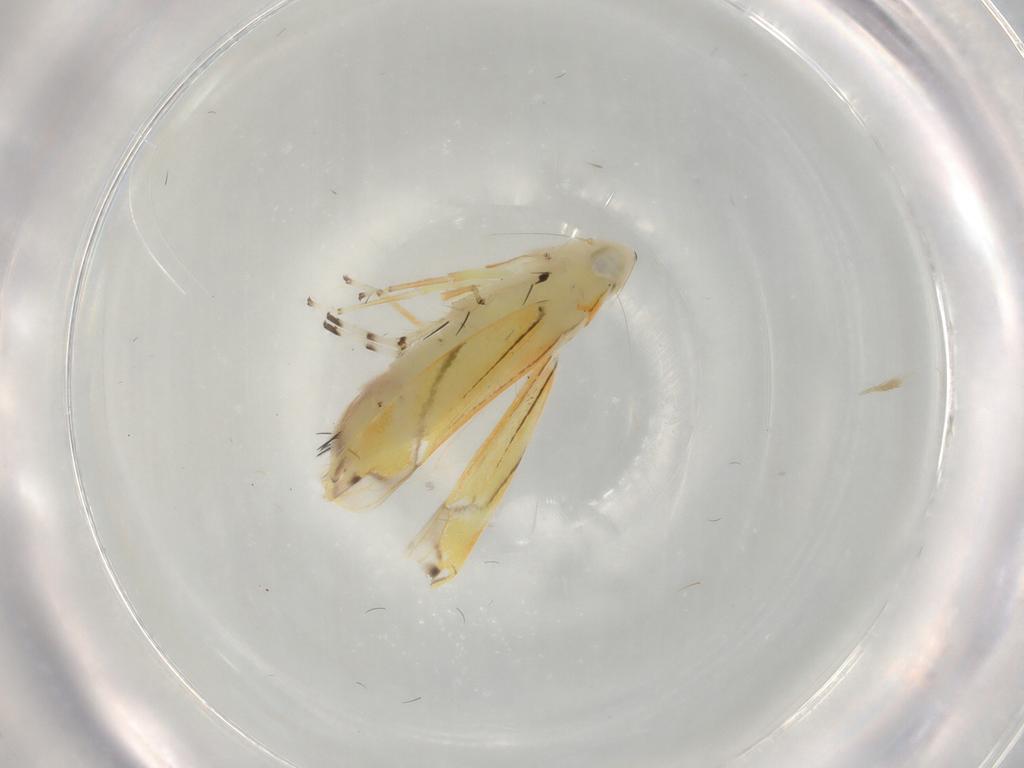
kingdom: Animalia
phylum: Arthropoda
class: Insecta
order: Hemiptera
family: Cicadellidae
